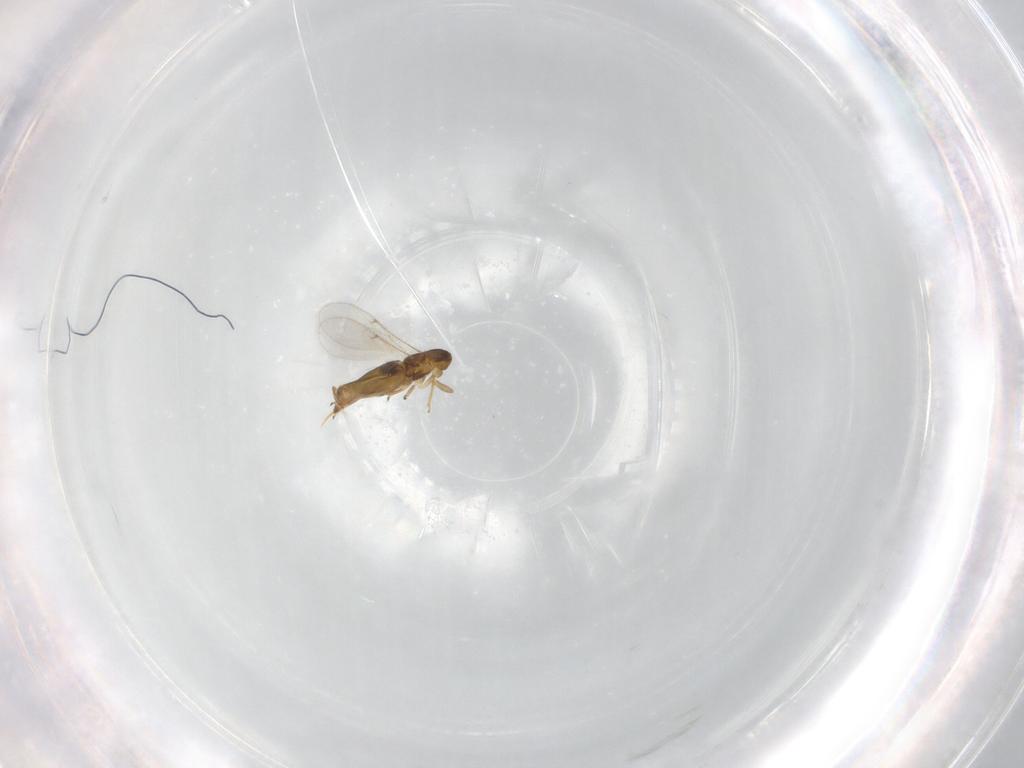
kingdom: Animalia
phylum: Arthropoda
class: Insecta
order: Hymenoptera
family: Encyrtidae
